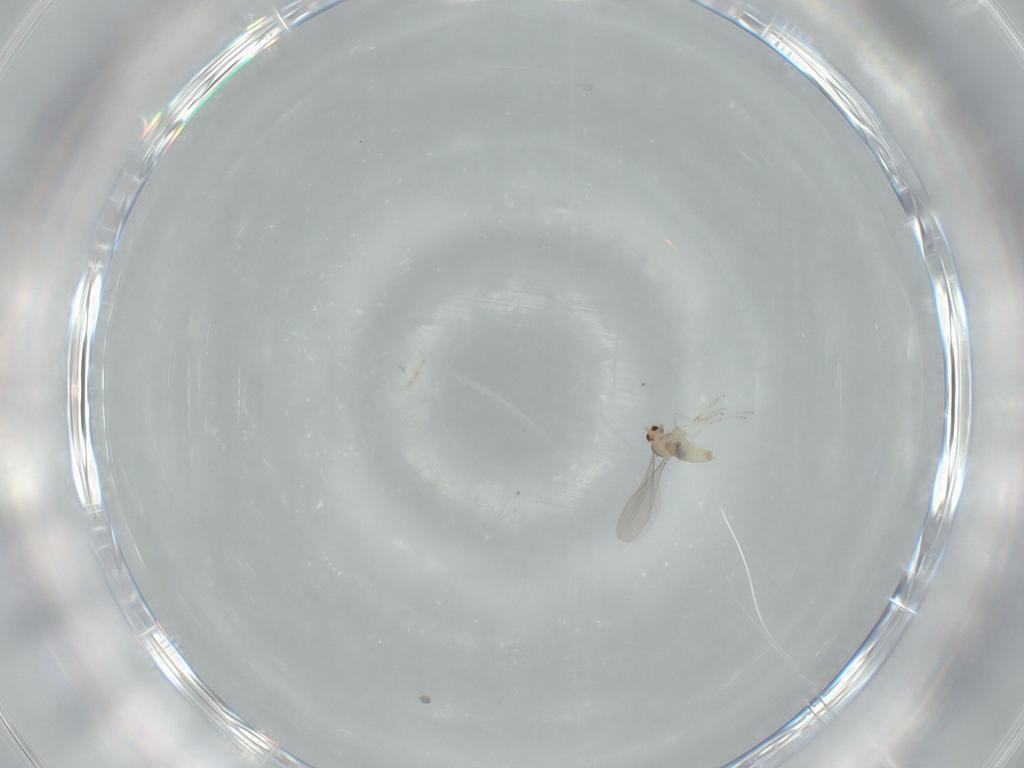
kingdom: Animalia
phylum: Arthropoda
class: Insecta
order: Diptera
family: Cecidomyiidae
